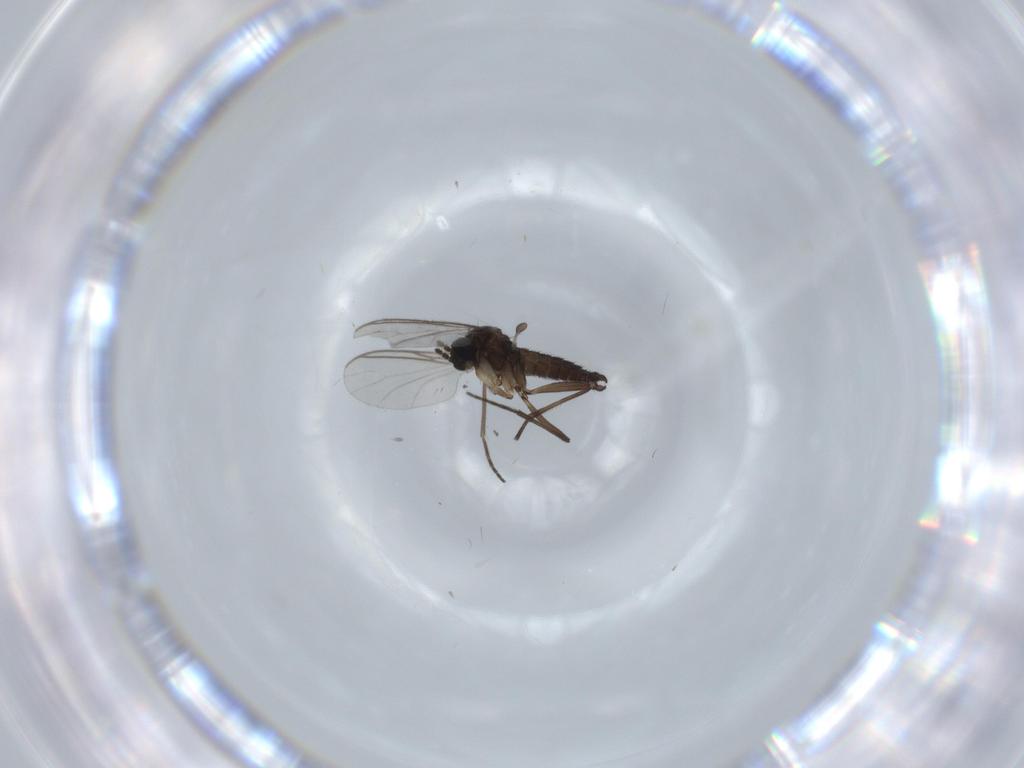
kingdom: Animalia
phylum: Arthropoda
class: Insecta
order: Diptera
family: Sciaridae
